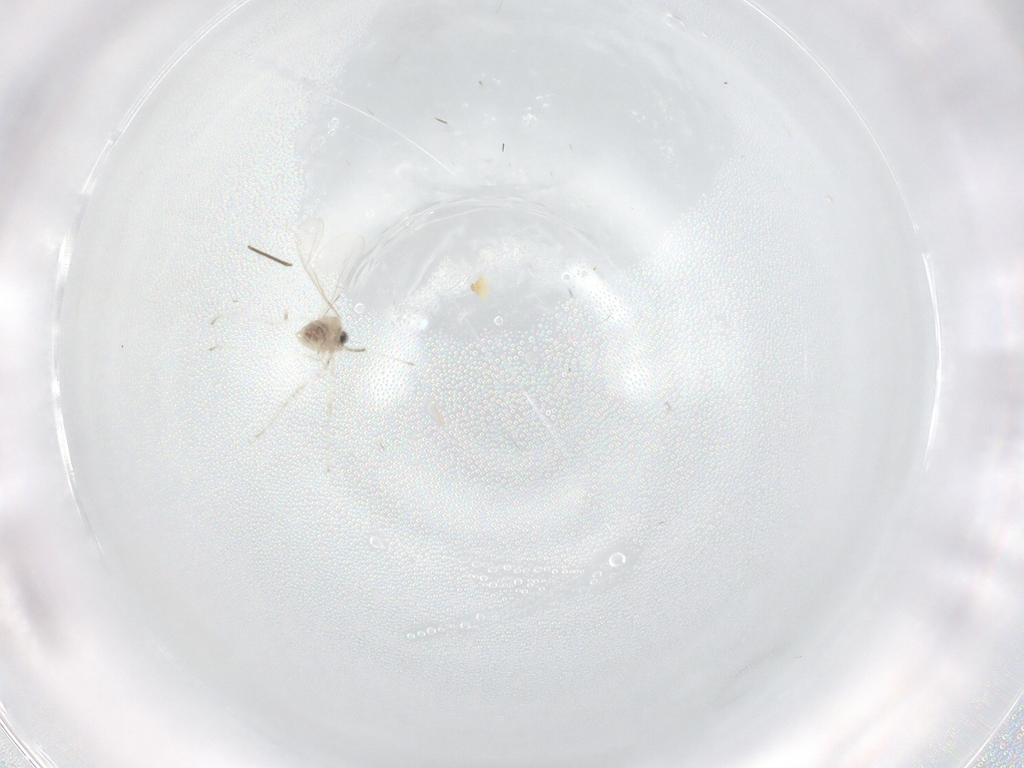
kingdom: Animalia
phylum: Arthropoda
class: Insecta
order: Diptera
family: Cecidomyiidae
